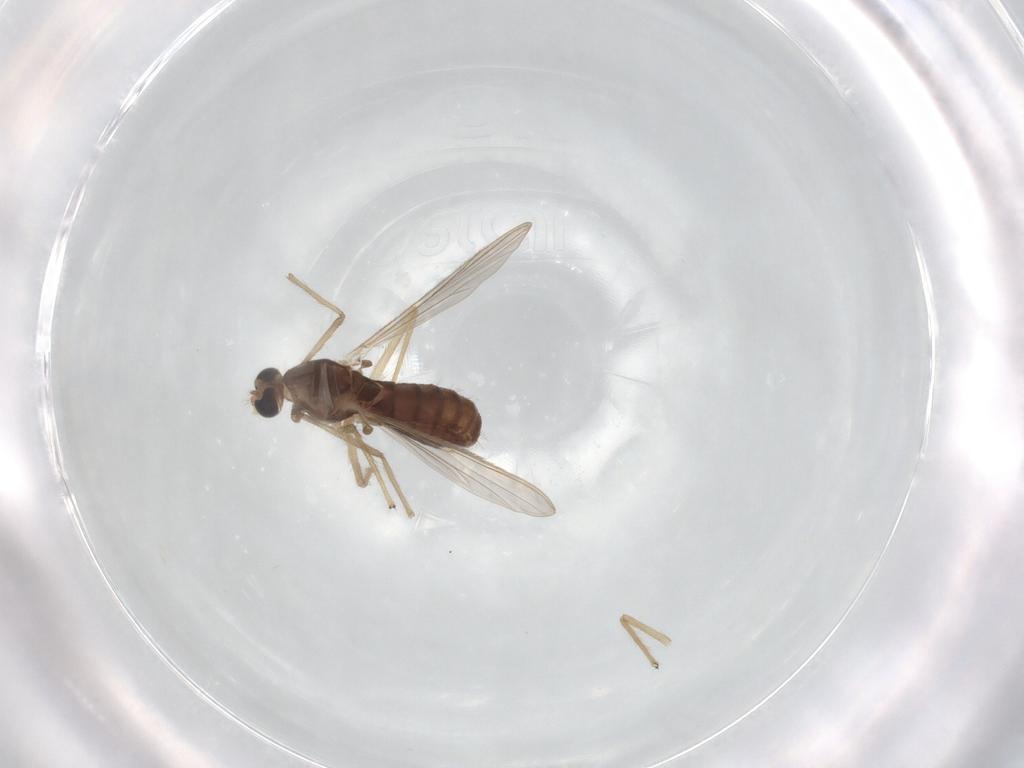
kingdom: Animalia
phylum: Arthropoda
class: Insecta
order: Diptera
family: Chironomidae
